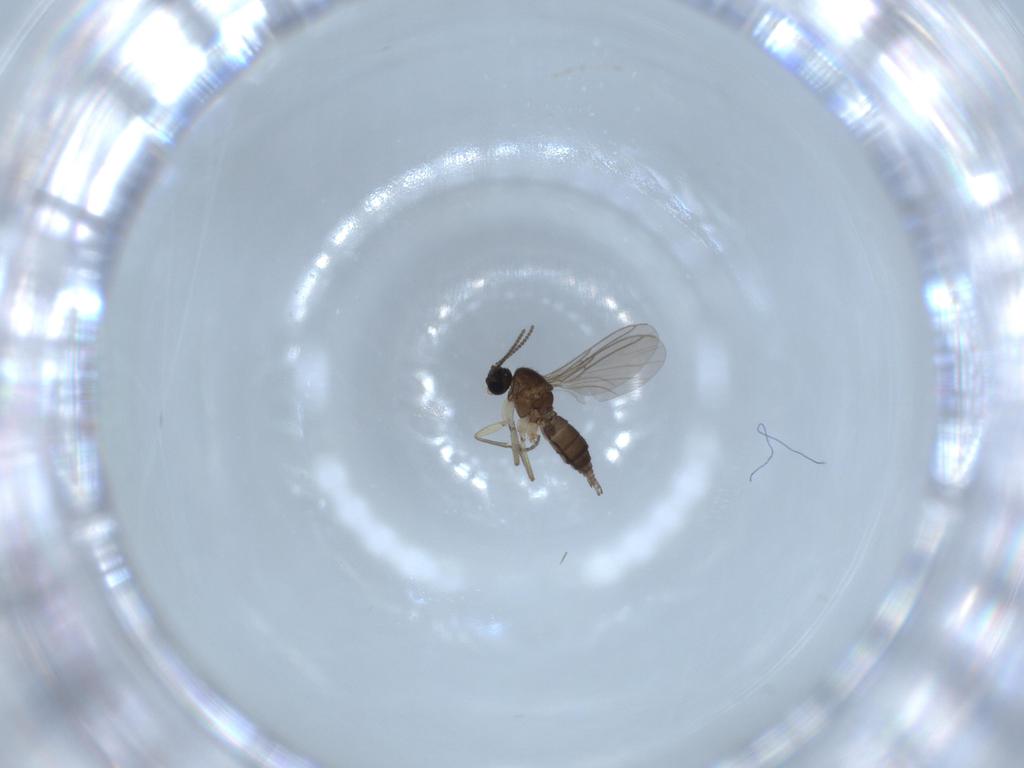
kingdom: Animalia
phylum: Arthropoda
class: Insecta
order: Diptera
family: Sciaridae
